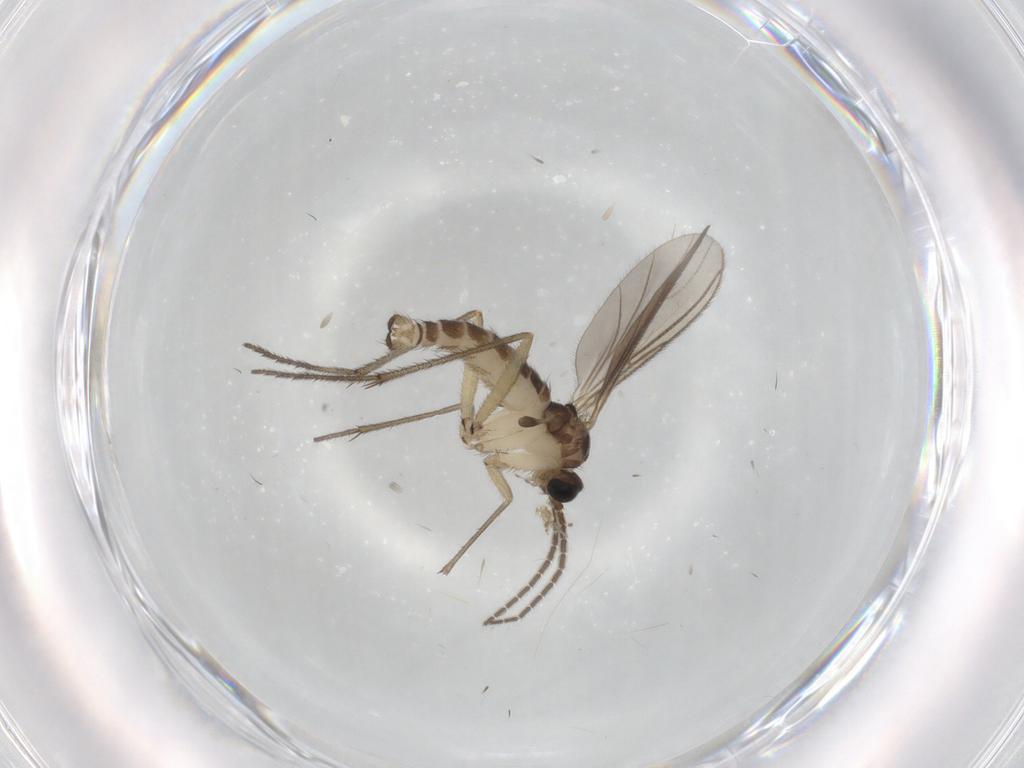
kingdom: Animalia
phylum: Arthropoda
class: Insecta
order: Diptera
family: Sciaridae
